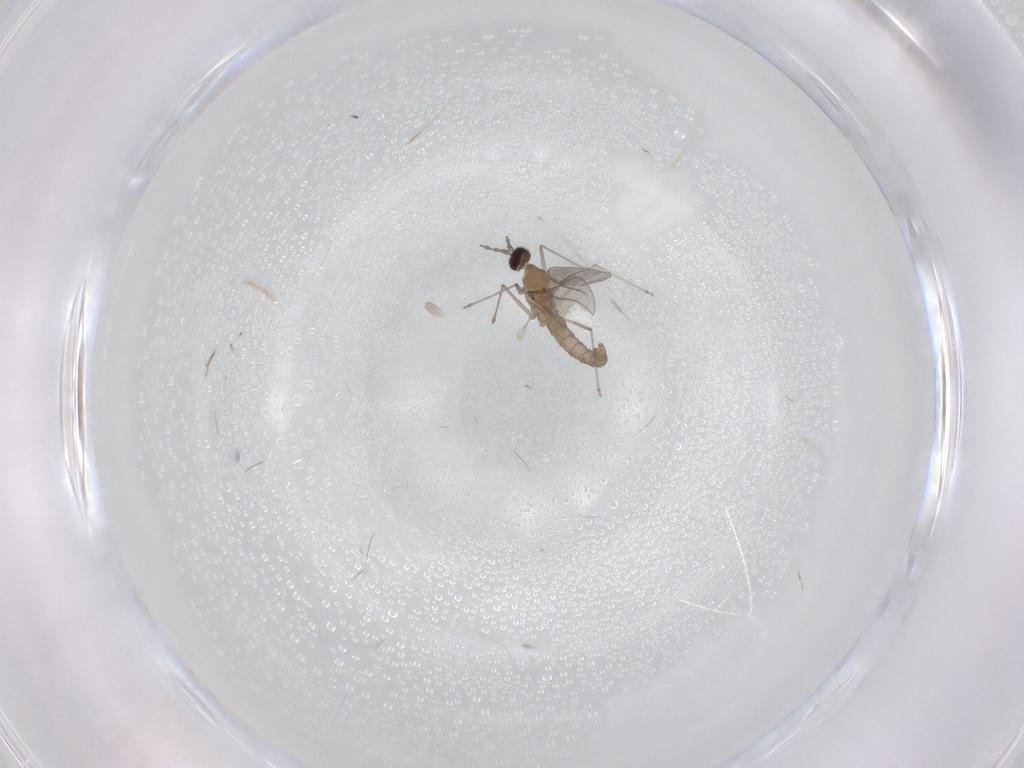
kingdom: Animalia
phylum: Arthropoda
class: Insecta
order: Diptera
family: Cecidomyiidae
